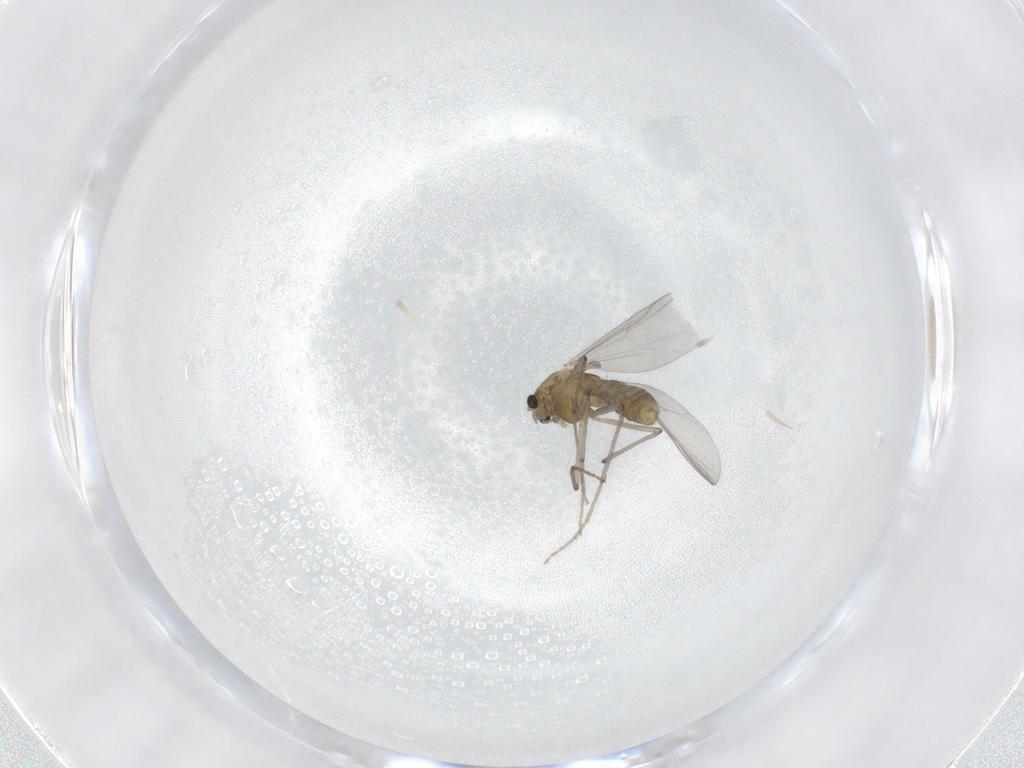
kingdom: Animalia
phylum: Arthropoda
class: Insecta
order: Diptera
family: Chironomidae
